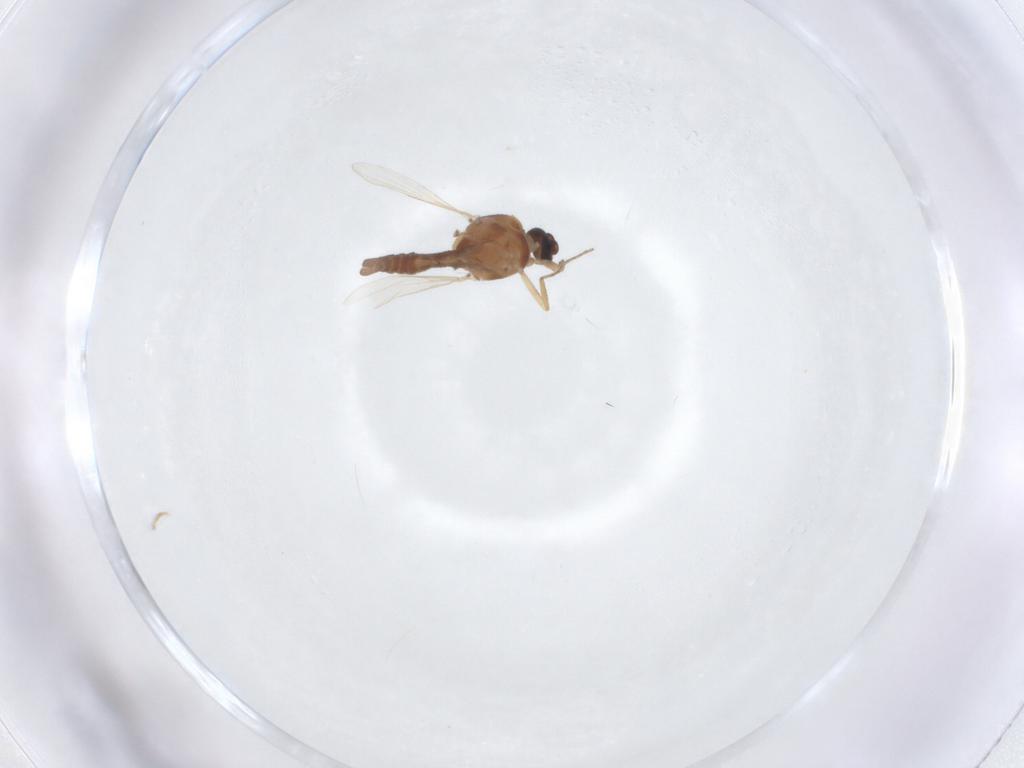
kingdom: Animalia
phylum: Arthropoda
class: Insecta
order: Diptera
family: Ceratopogonidae
